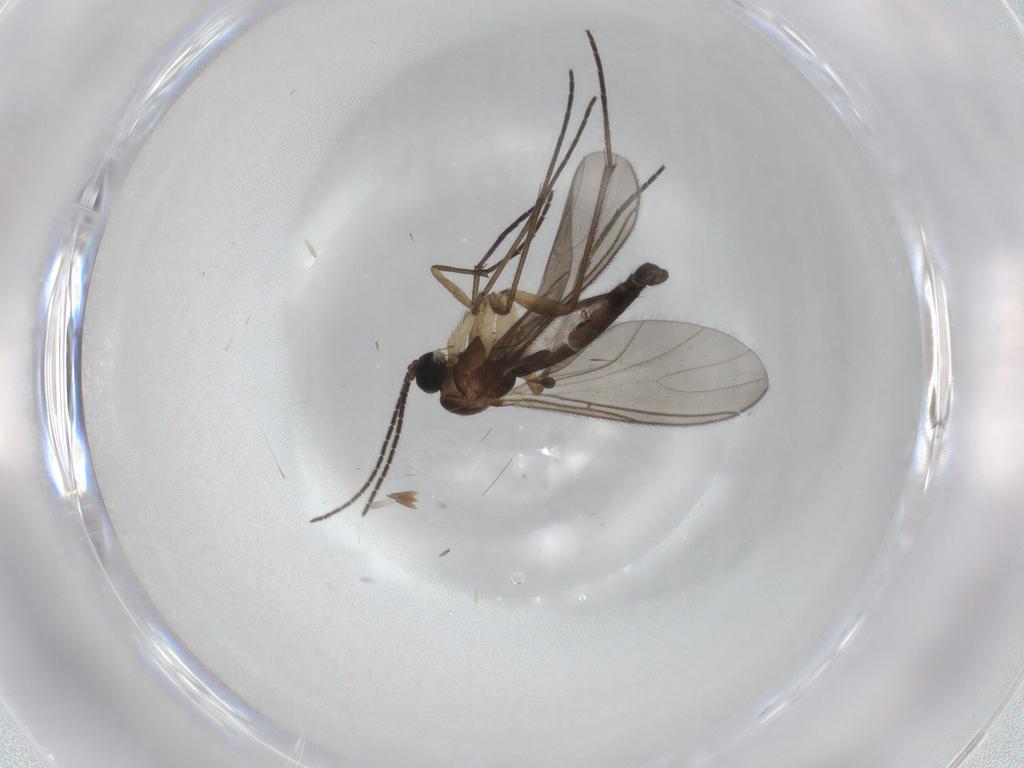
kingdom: Animalia
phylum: Arthropoda
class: Insecta
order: Diptera
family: Sciaridae
